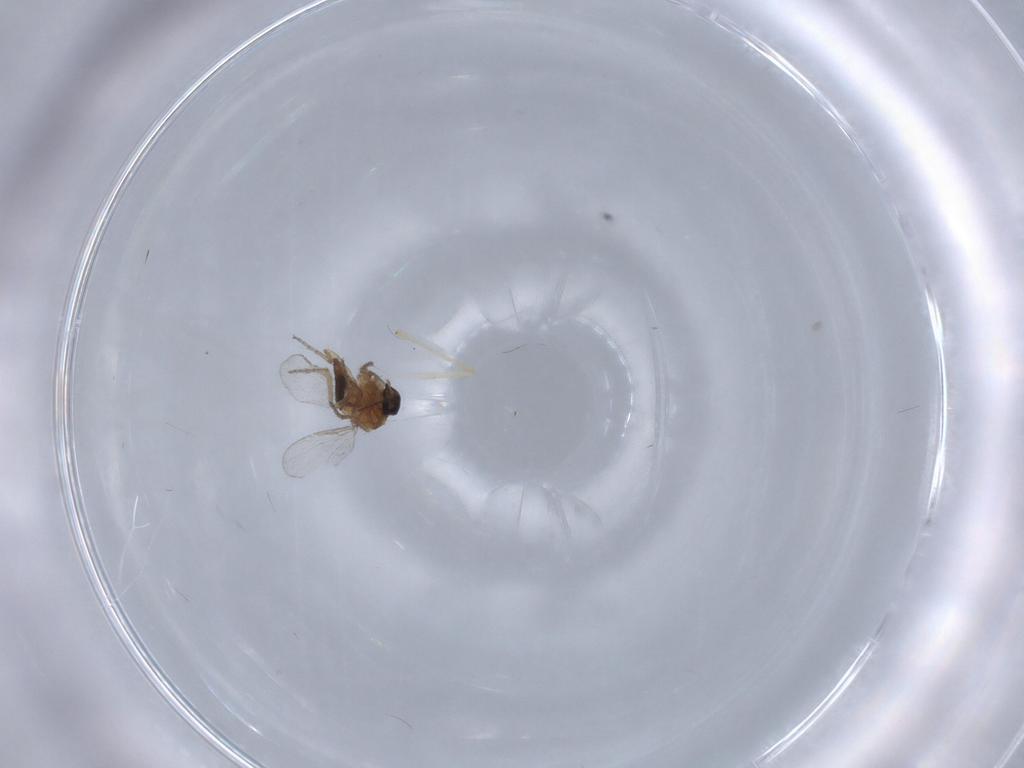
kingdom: Animalia
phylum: Arthropoda
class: Insecta
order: Diptera
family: Ceratopogonidae
